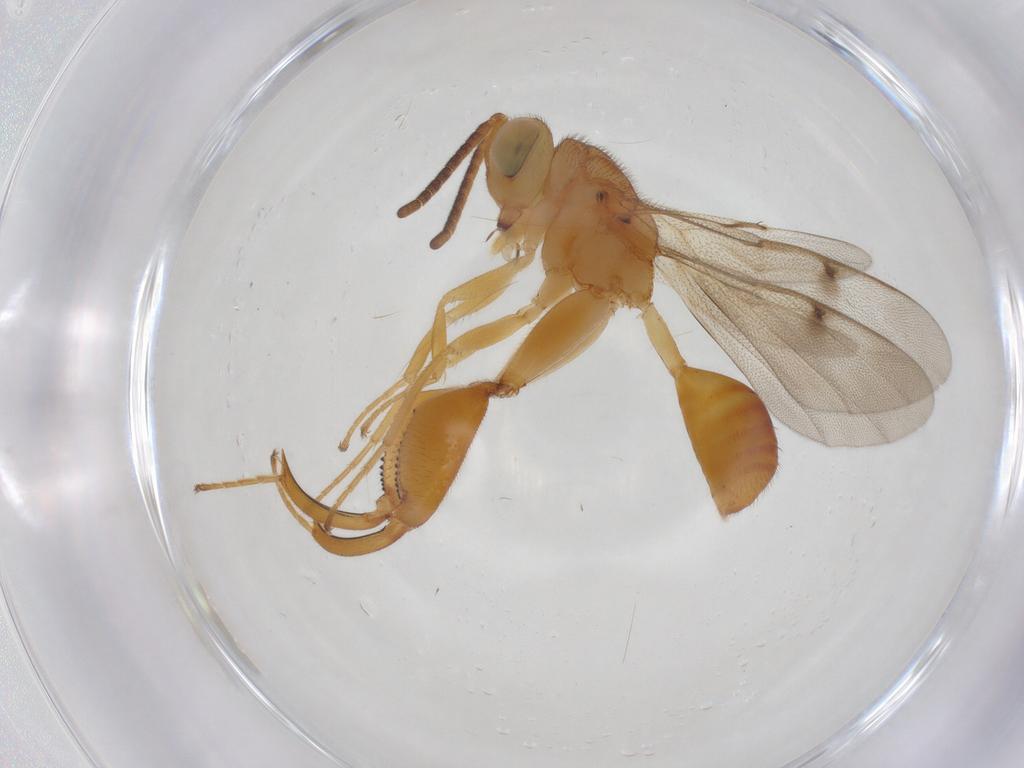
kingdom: Animalia
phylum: Arthropoda
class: Insecta
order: Hymenoptera
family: Chalcididae
